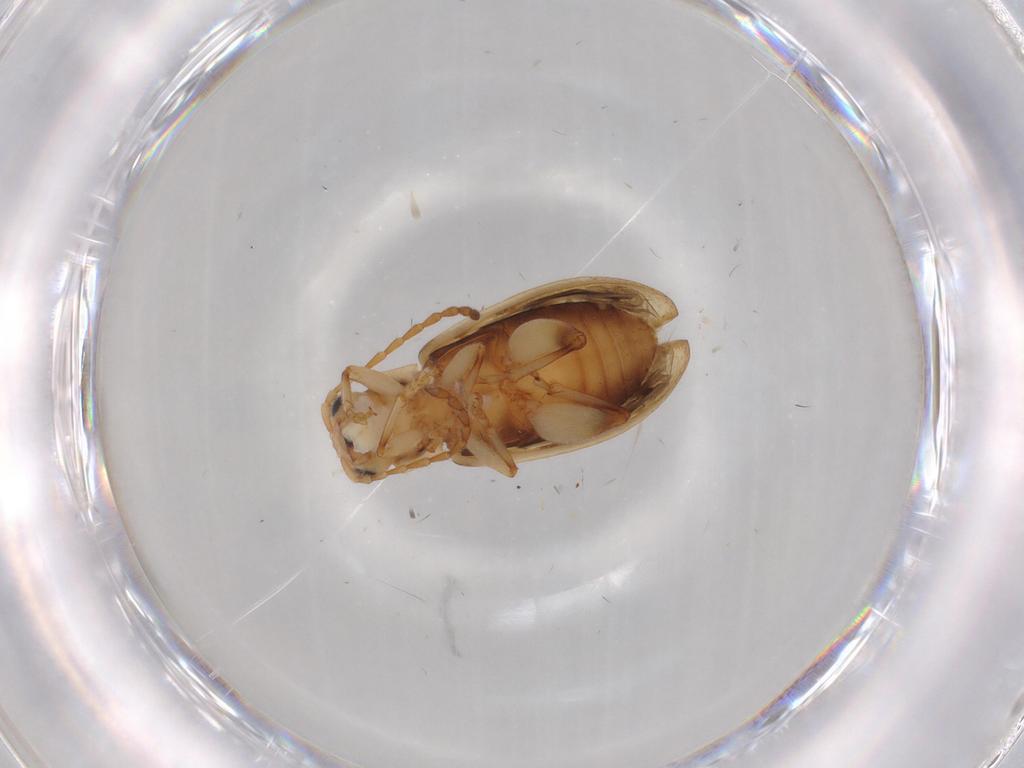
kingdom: Animalia
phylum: Arthropoda
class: Insecta
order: Coleoptera
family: Chrysomelidae
